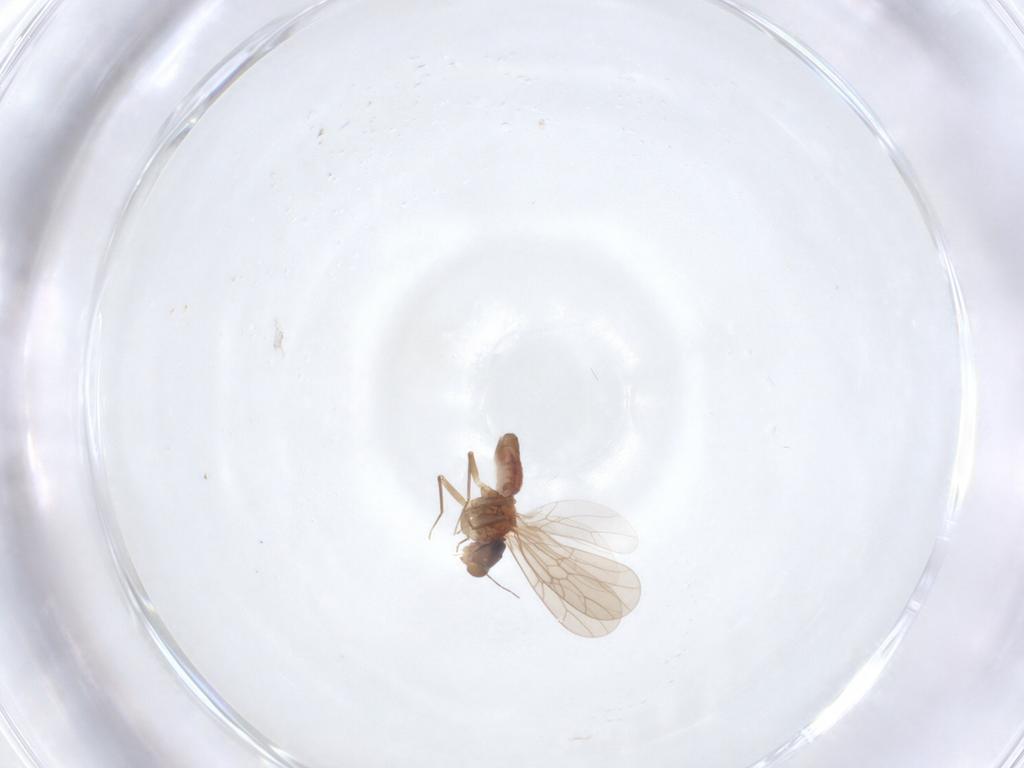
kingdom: Animalia
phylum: Arthropoda
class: Insecta
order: Psocodea
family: Lepidopsocidae
